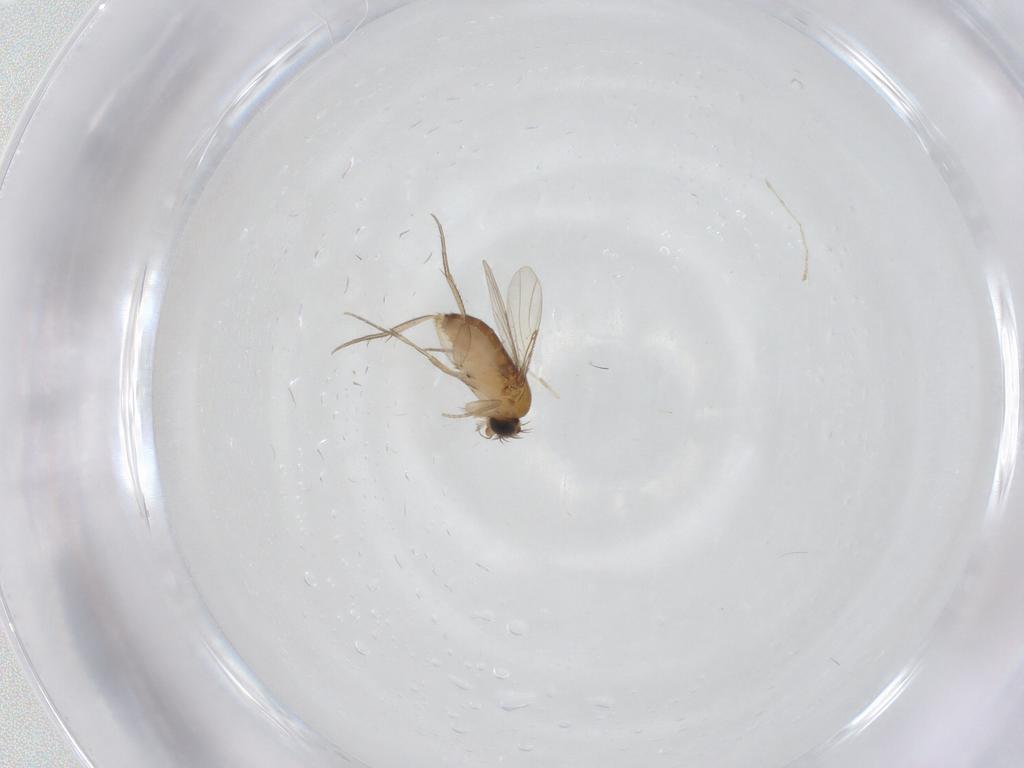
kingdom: Animalia
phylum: Arthropoda
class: Insecta
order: Diptera
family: Phoridae
